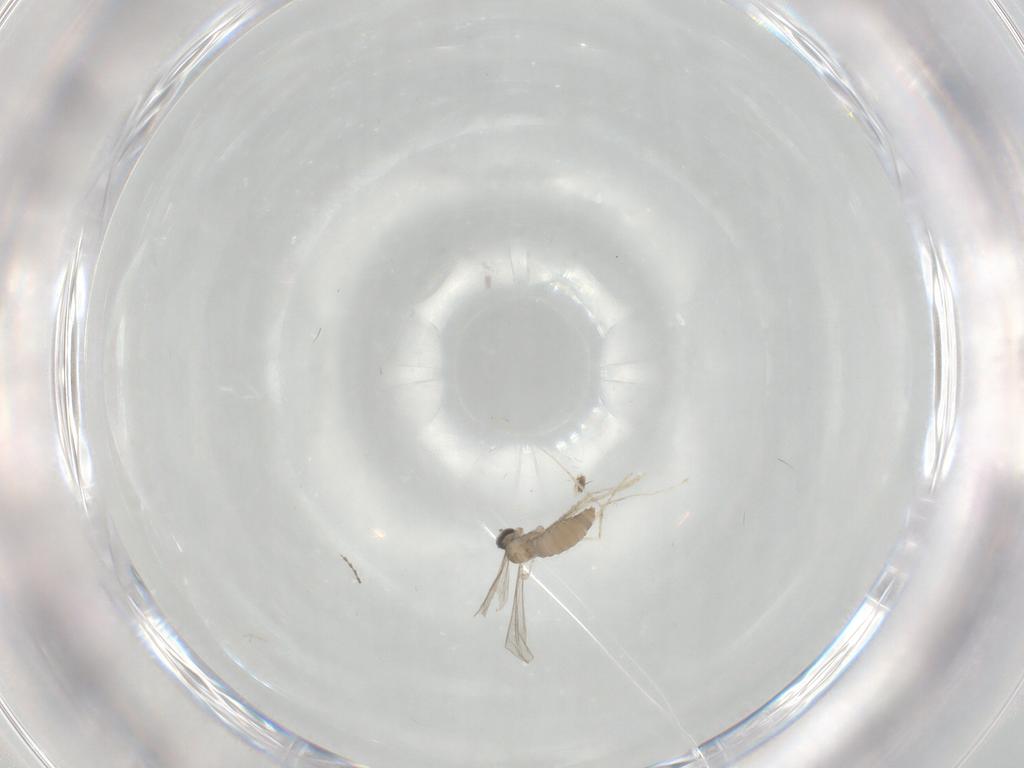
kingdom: Animalia
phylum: Arthropoda
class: Insecta
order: Diptera
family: Cecidomyiidae
